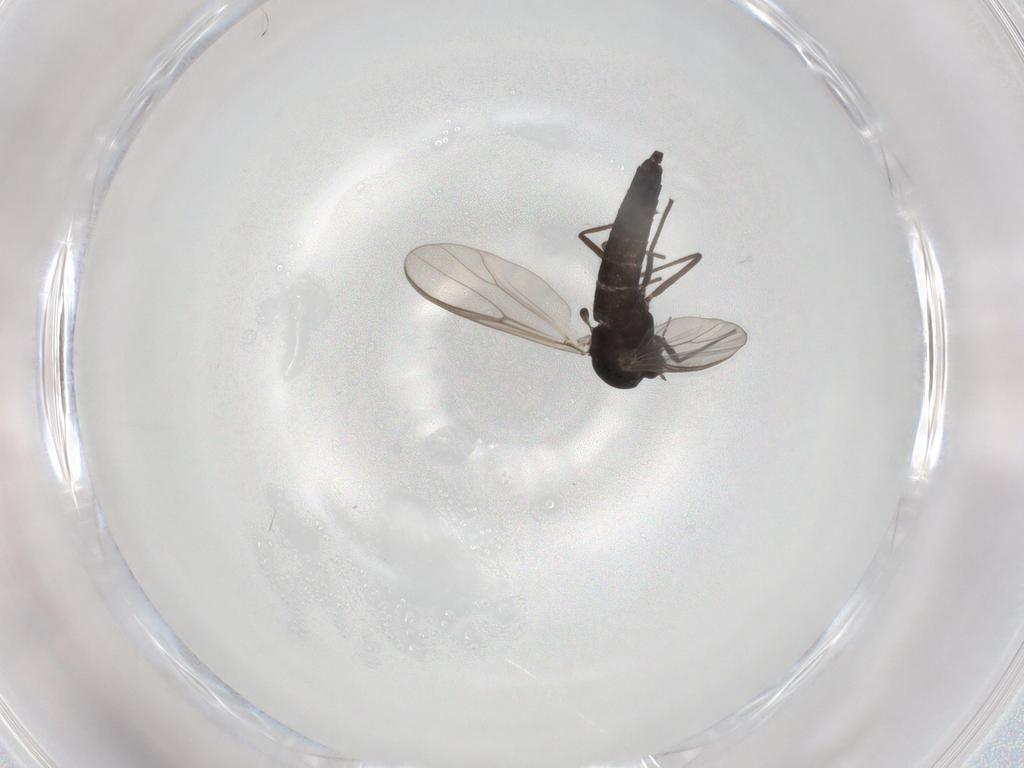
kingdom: Animalia
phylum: Arthropoda
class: Insecta
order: Diptera
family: Chironomidae
